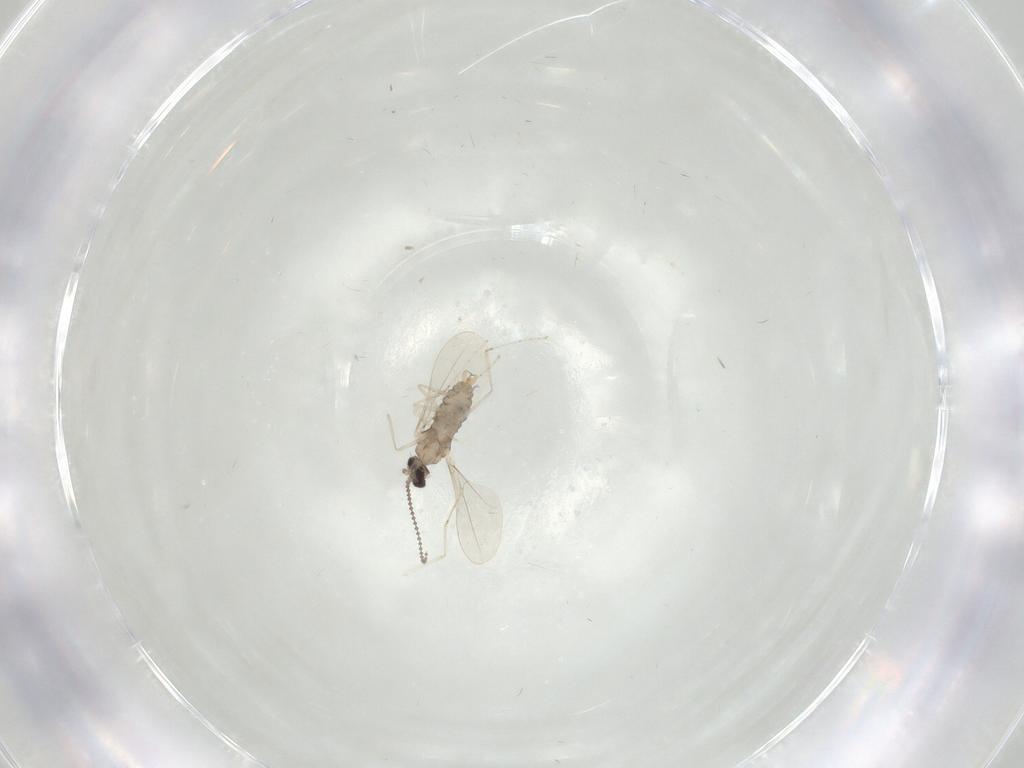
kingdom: Animalia
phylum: Arthropoda
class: Insecta
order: Diptera
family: Cecidomyiidae
